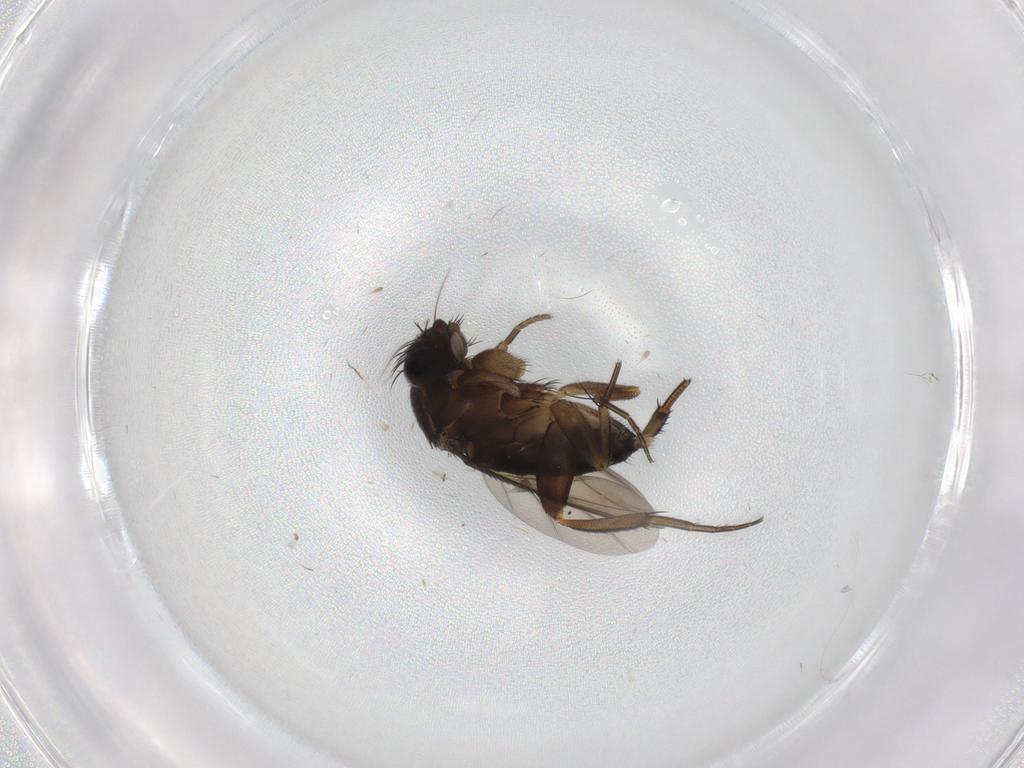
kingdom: Animalia
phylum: Arthropoda
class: Insecta
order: Diptera
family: Phoridae
